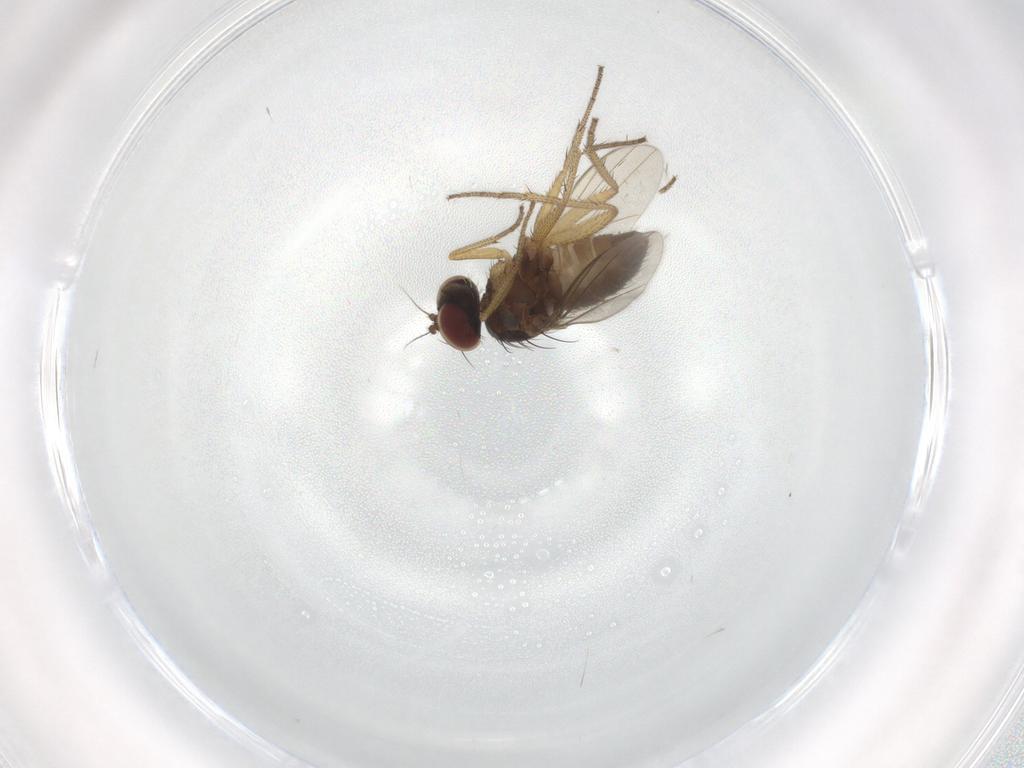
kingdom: Animalia
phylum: Arthropoda
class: Insecta
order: Diptera
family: Dolichopodidae
